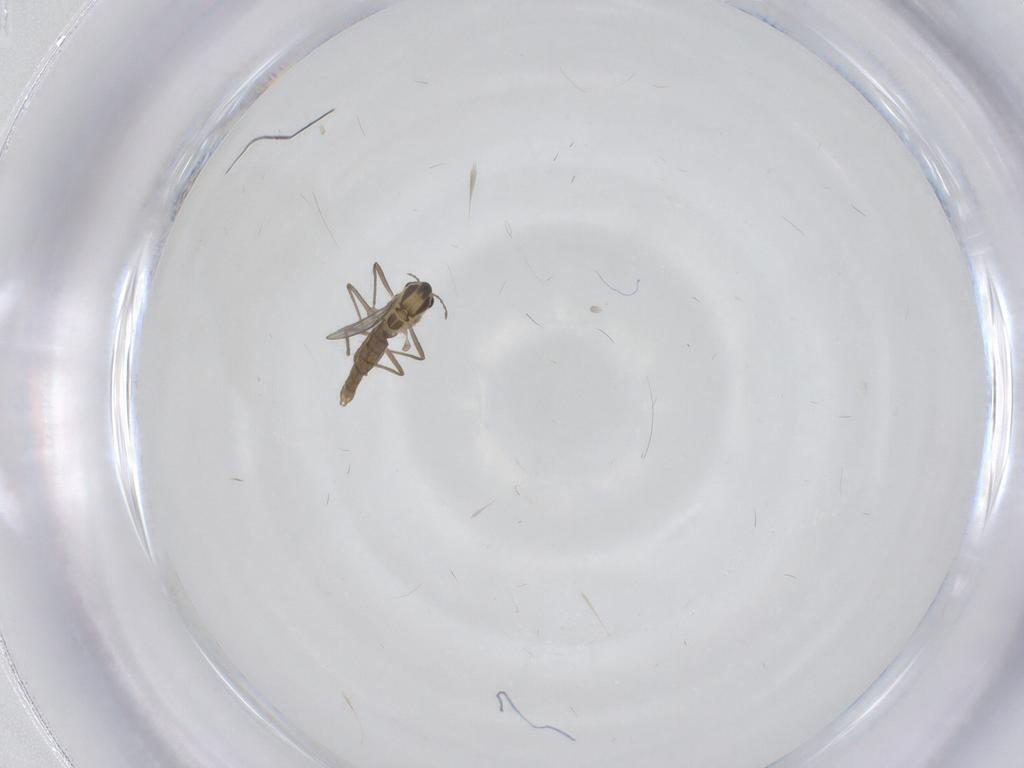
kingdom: Animalia
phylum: Arthropoda
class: Insecta
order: Diptera
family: Chironomidae
